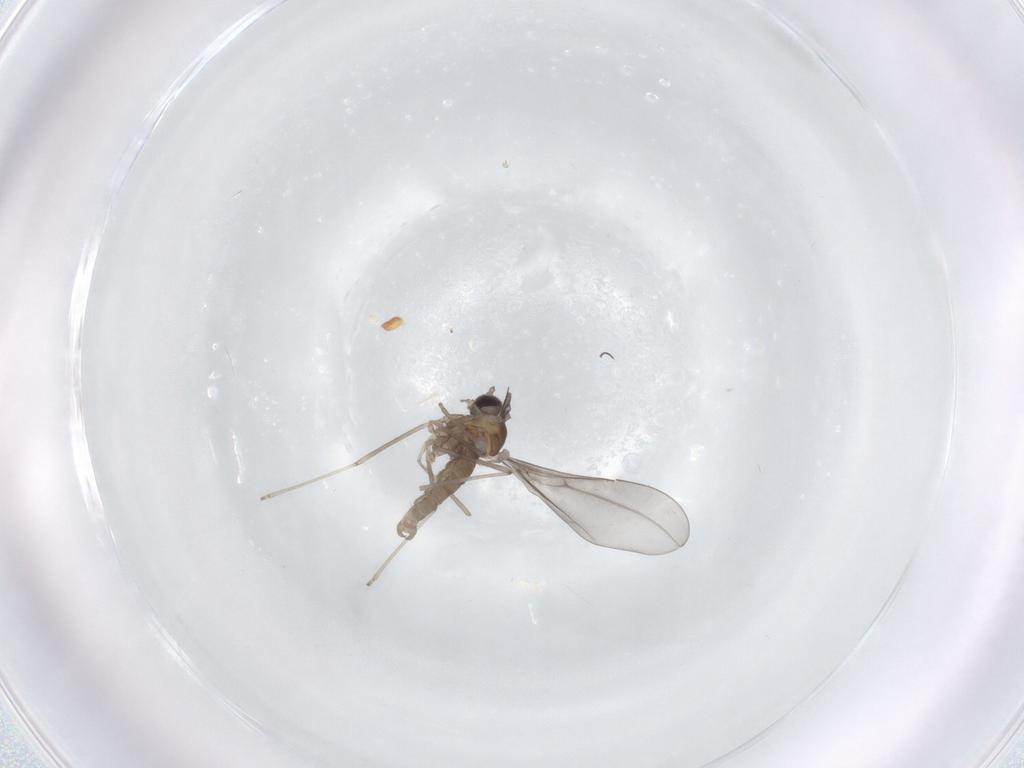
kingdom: Animalia
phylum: Arthropoda
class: Insecta
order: Diptera
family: Cecidomyiidae
